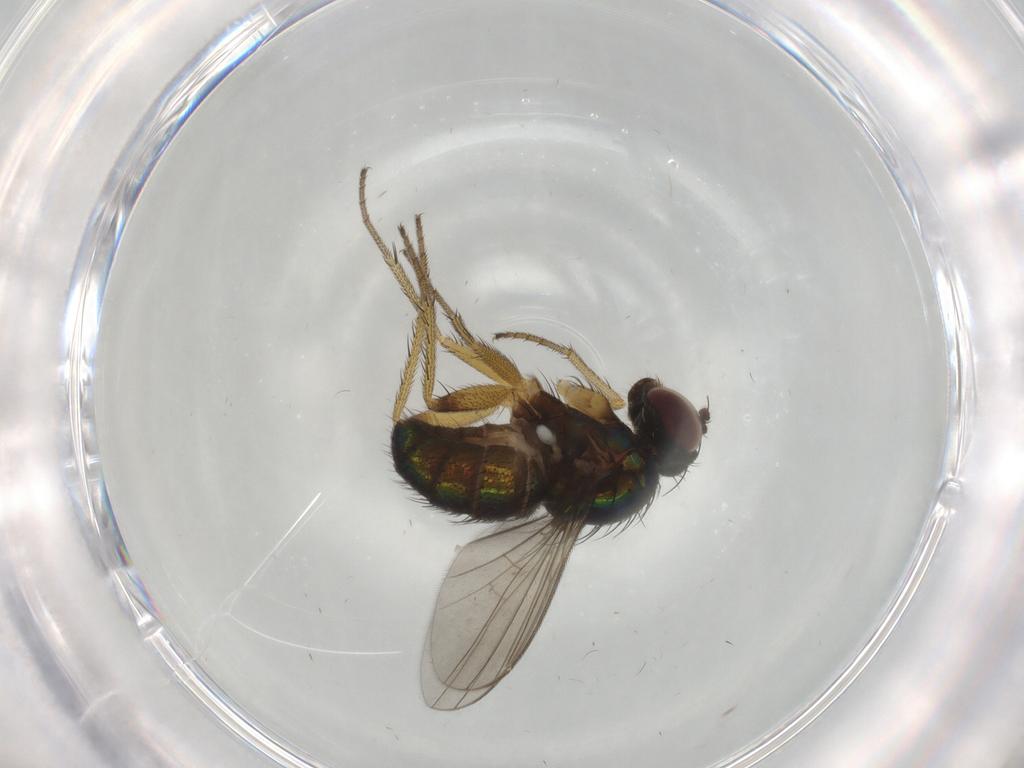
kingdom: Animalia
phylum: Arthropoda
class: Insecta
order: Diptera
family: Dolichopodidae
